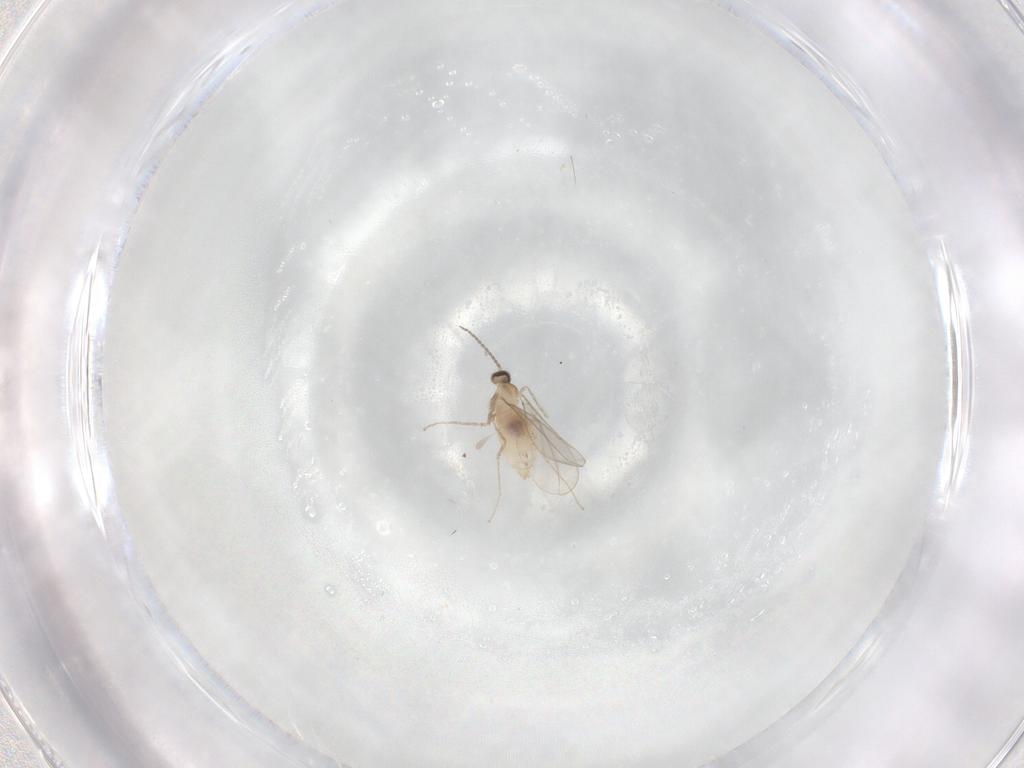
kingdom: Animalia
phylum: Arthropoda
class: Insecta
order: Diptera
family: Cecidomyiidae
